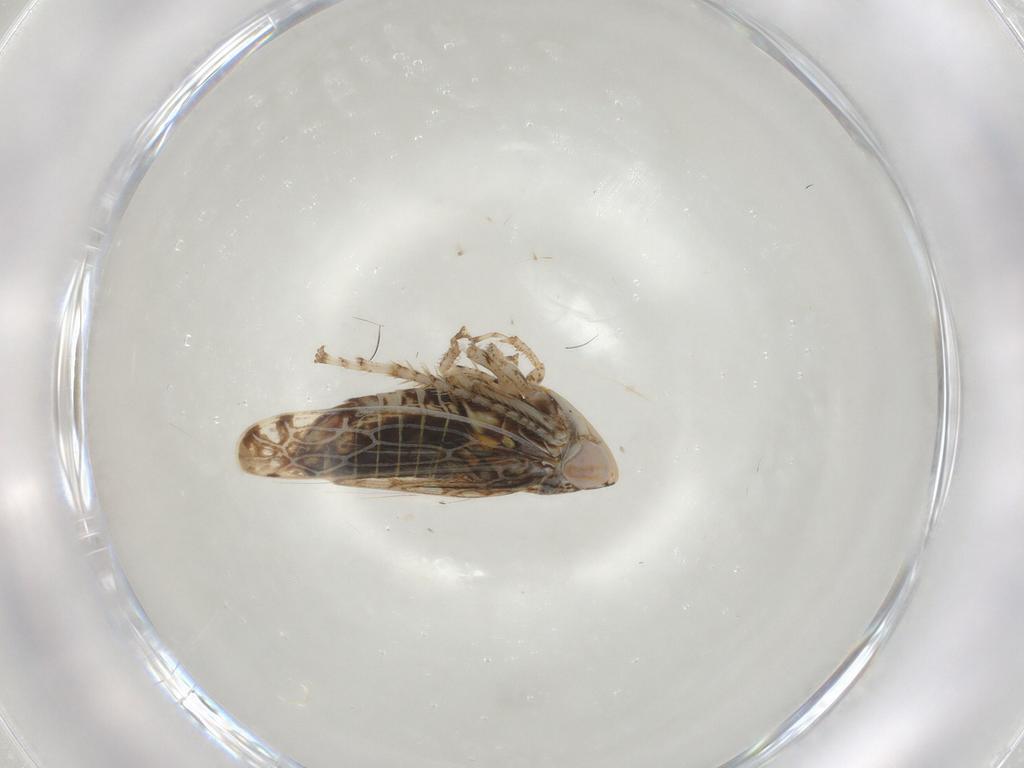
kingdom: Animalia
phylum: Arthropoda
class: Insecta
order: Hemiptera
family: Cicadellidae
